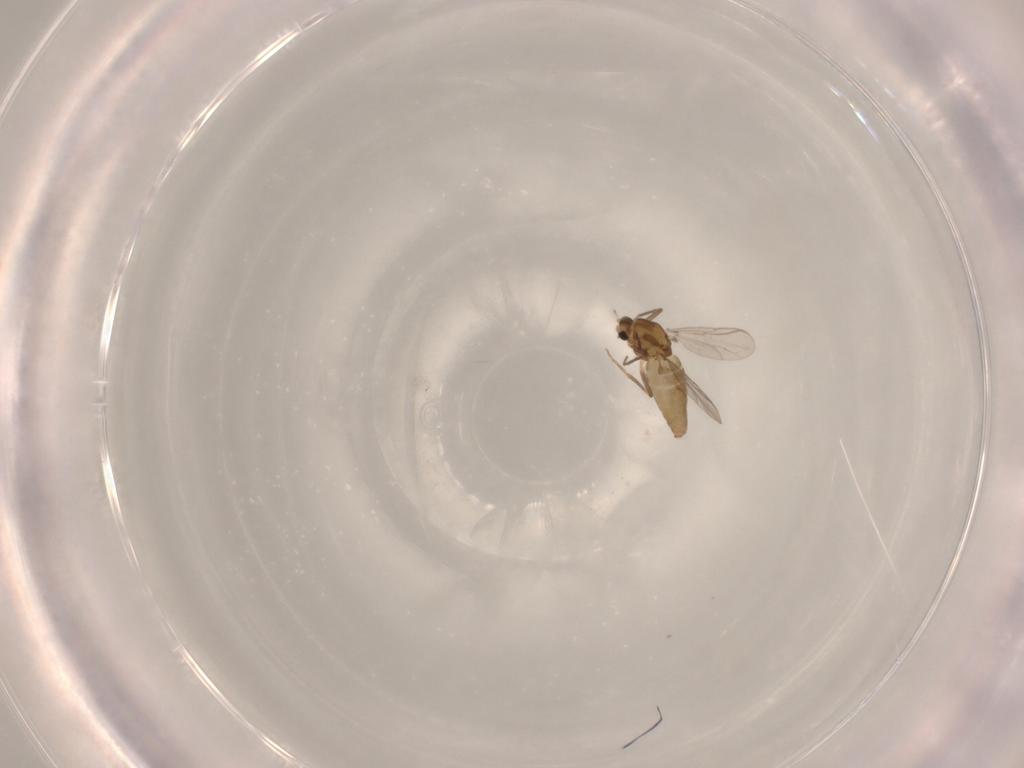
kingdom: Animalia
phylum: Arthropoda
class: Insecta
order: Diptera
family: Chironomidae
